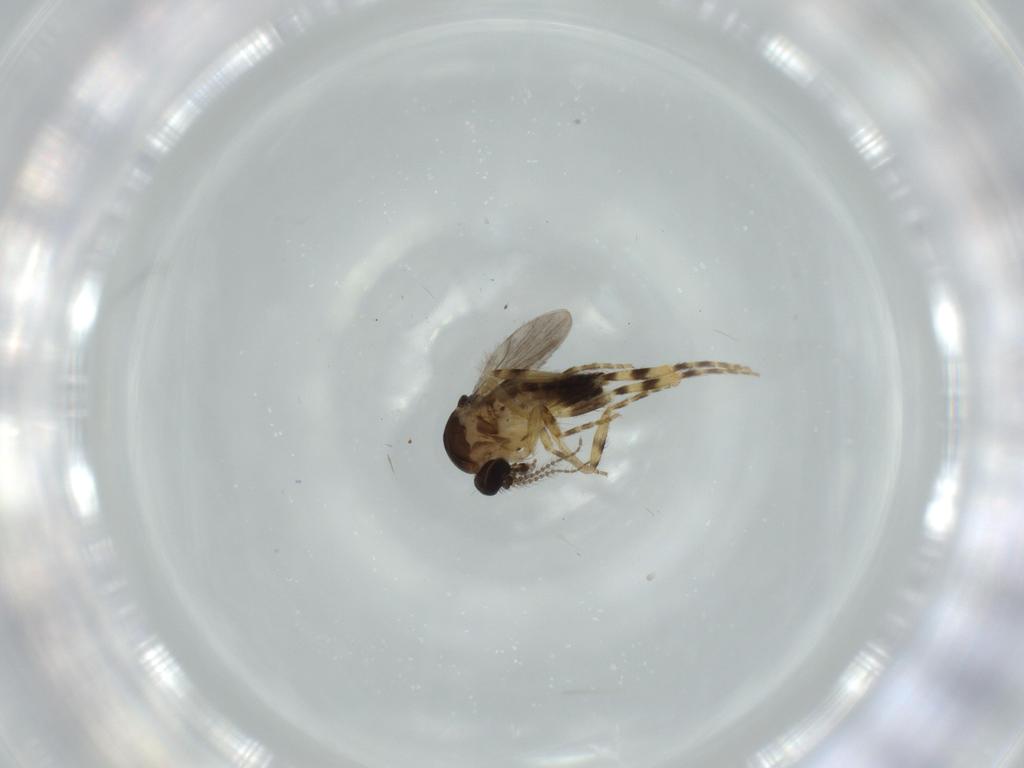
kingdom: Animalia
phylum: Arthropoda
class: Insecta
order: Diptera
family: Ceratopogonidae
